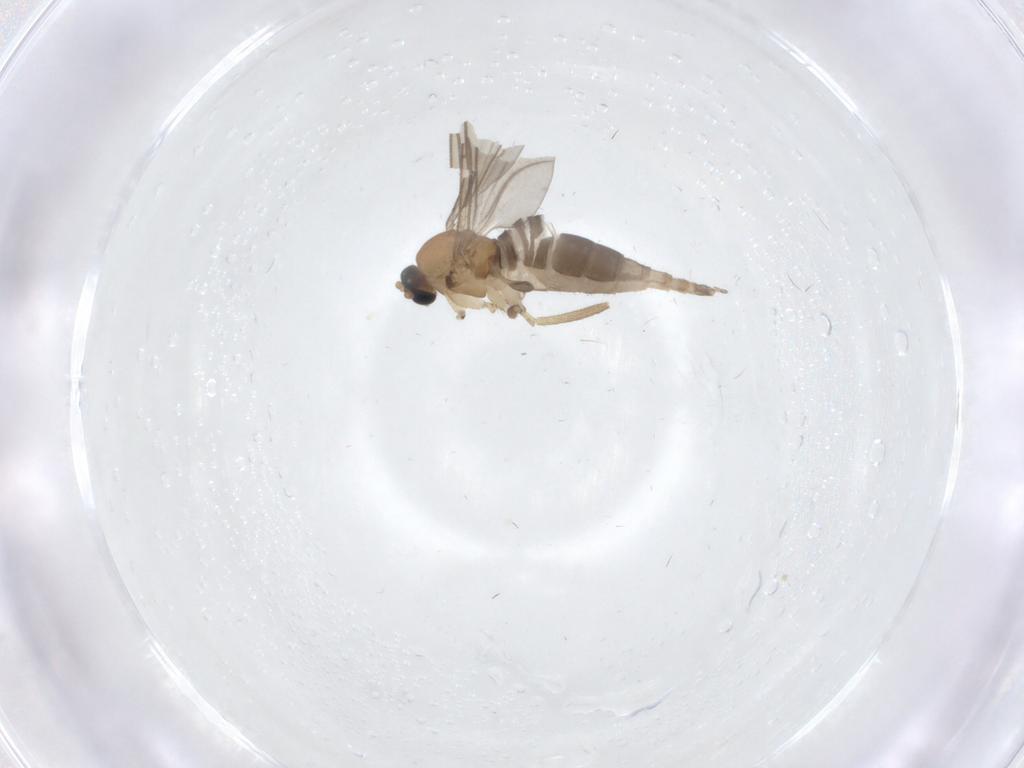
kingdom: Animalia
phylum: Arthropoda
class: Insecta
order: Diptera
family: Sciaridae
